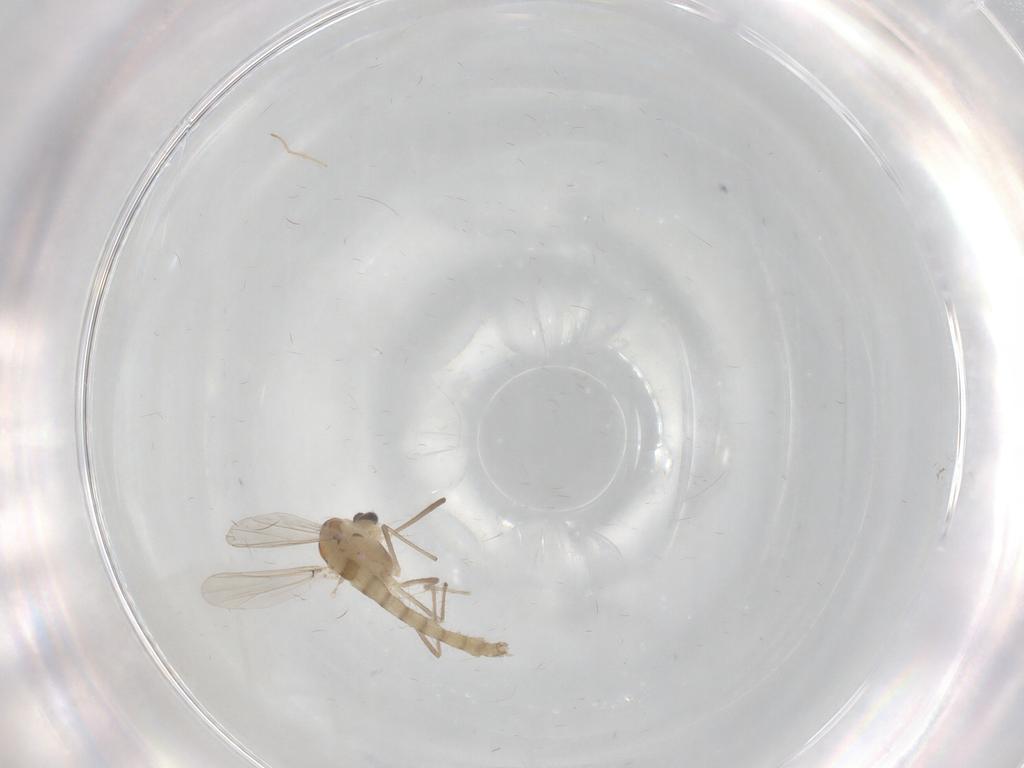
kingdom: Animalia
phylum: Arthropoda
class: Insecta
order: Diptera
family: Chironomidae
